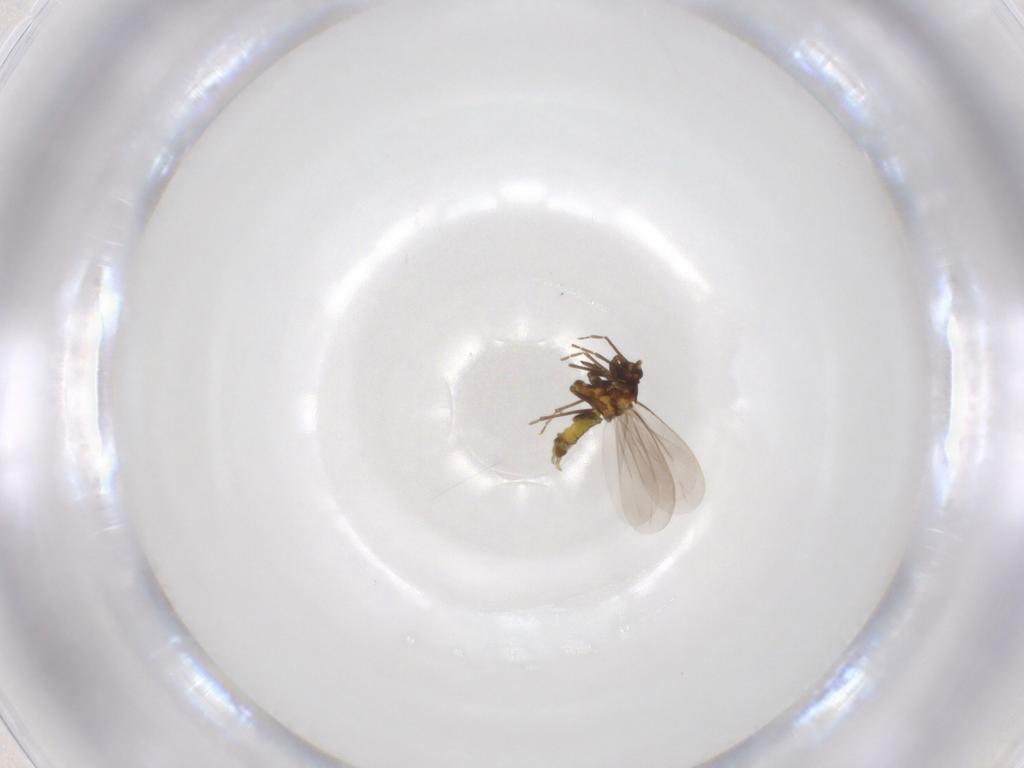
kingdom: Animalia
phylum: Arthropoda
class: Insecta
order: Hemiptera
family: Aleyrodidae
